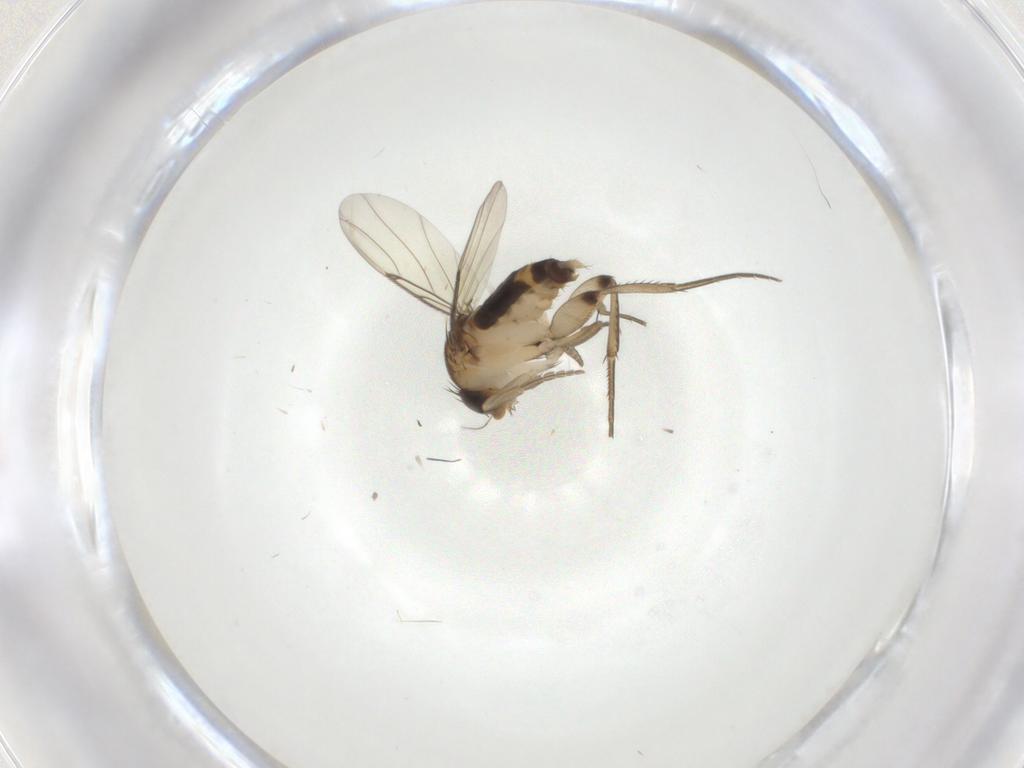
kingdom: Animalia
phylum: Arthropoda
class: Insecta
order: Diptera
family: Phoridae
